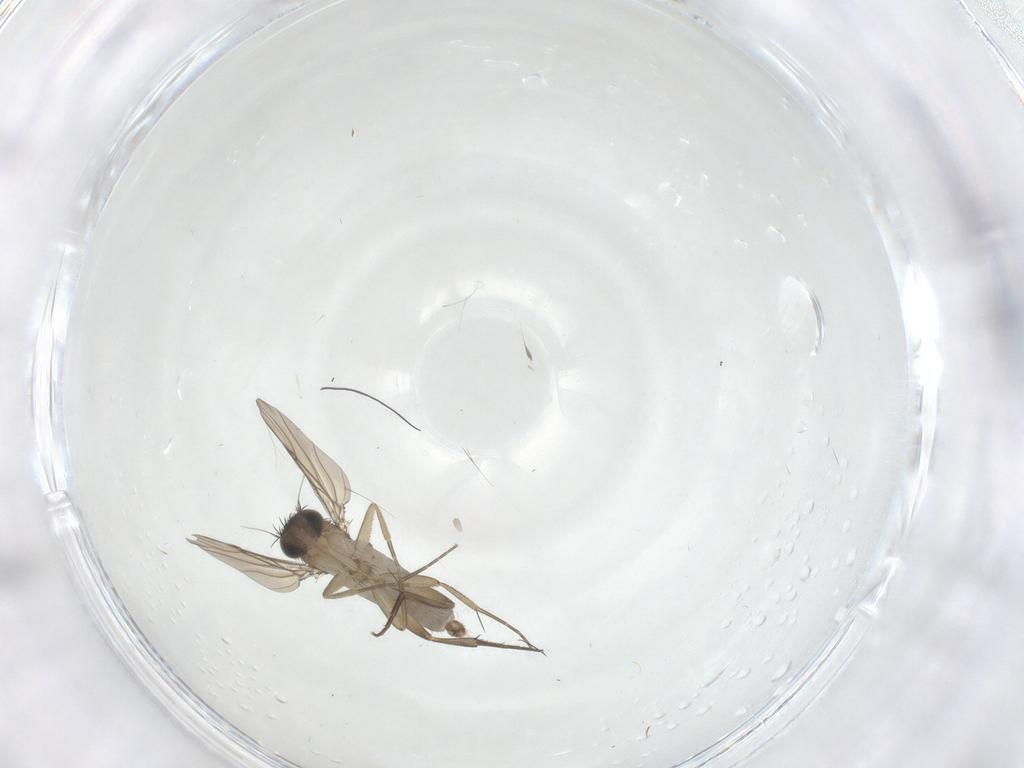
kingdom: Animalia
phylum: Arthropoda
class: Insecta
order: Diptera
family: Phoridae
